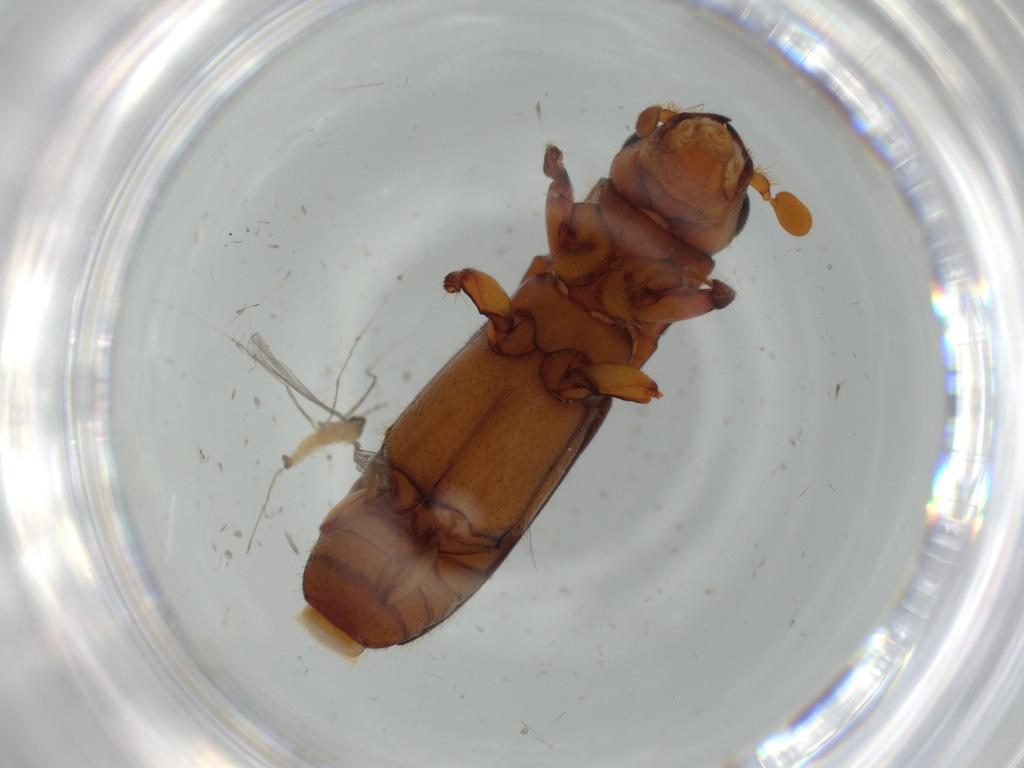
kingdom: Animalia
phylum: Arthropoda
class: Insecta
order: Coleoptera
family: Curculionidae
